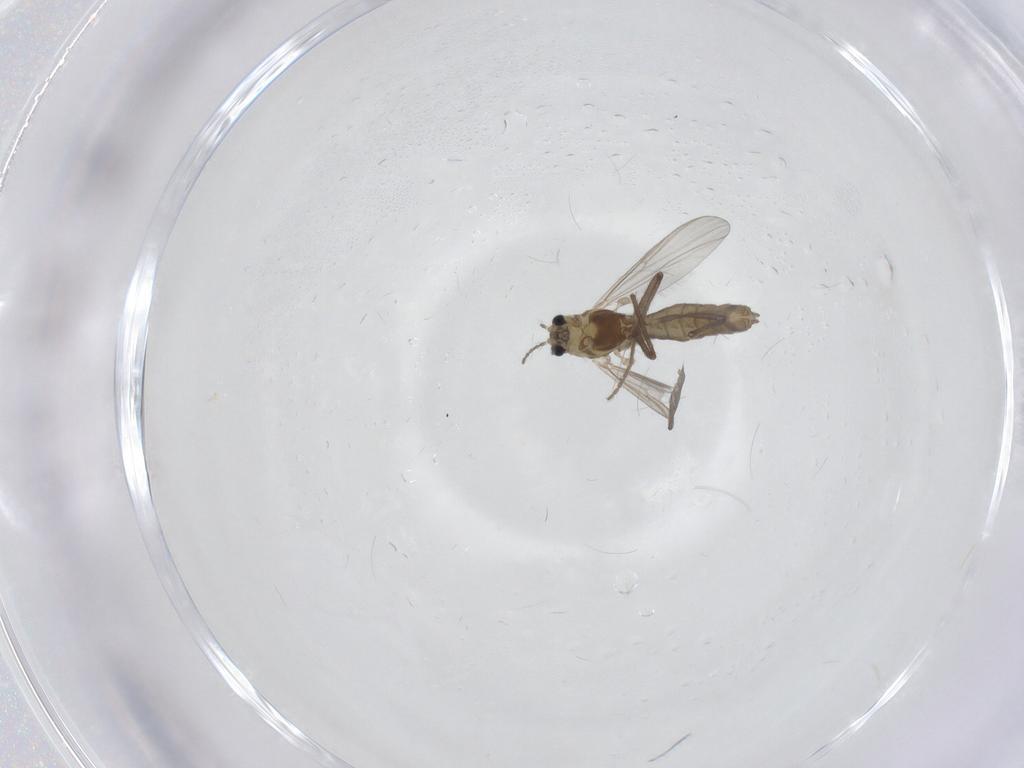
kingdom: Animalia
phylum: Arthropoda
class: Insecta
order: Diptera
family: Chironomidae
